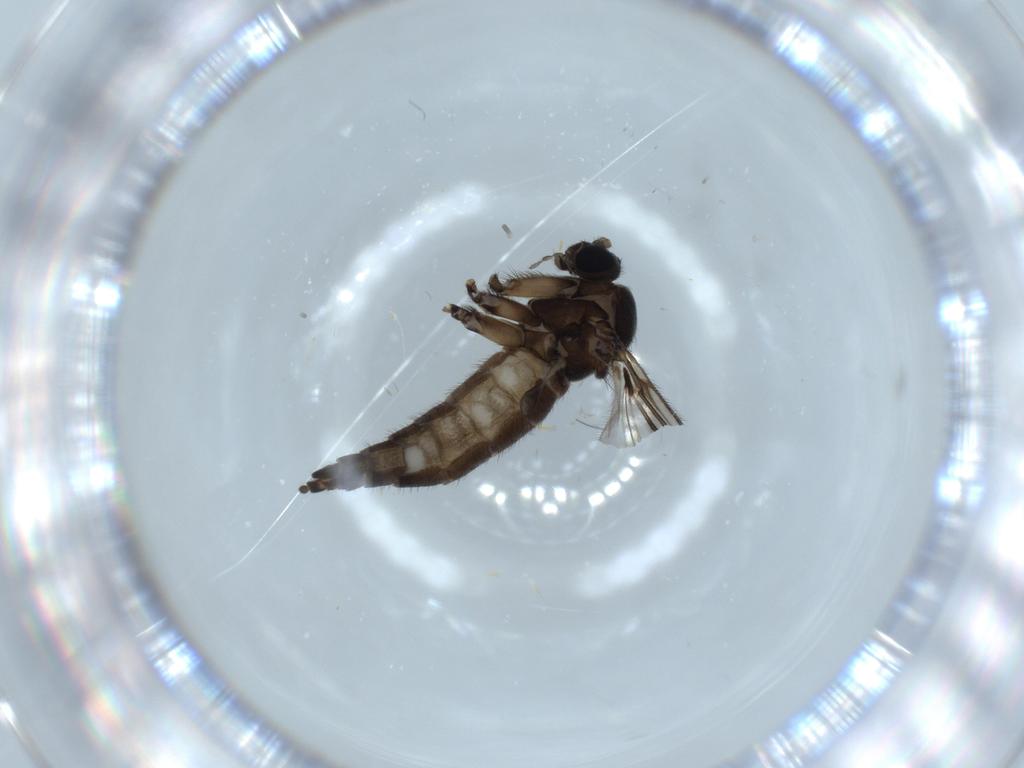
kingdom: Animalia
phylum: Arthropoda
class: Insecta
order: Diptera
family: Sciaridae
